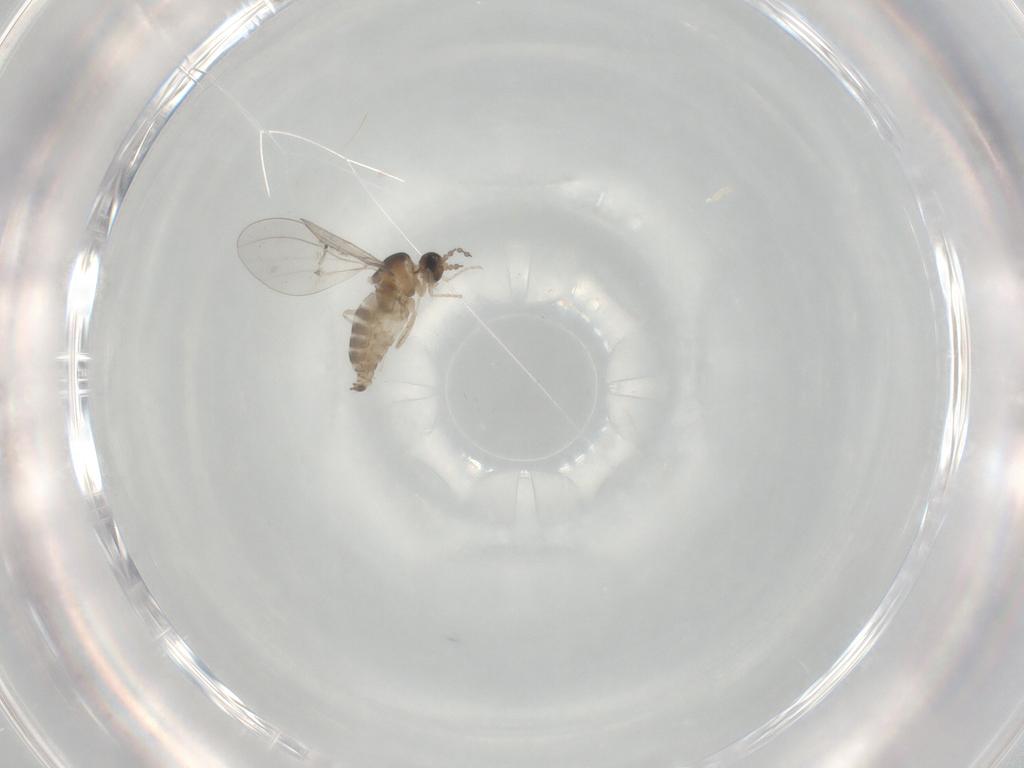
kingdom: Animalia
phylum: Arthropoda
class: Insecta
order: Diptera
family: Cecidomyiidae
